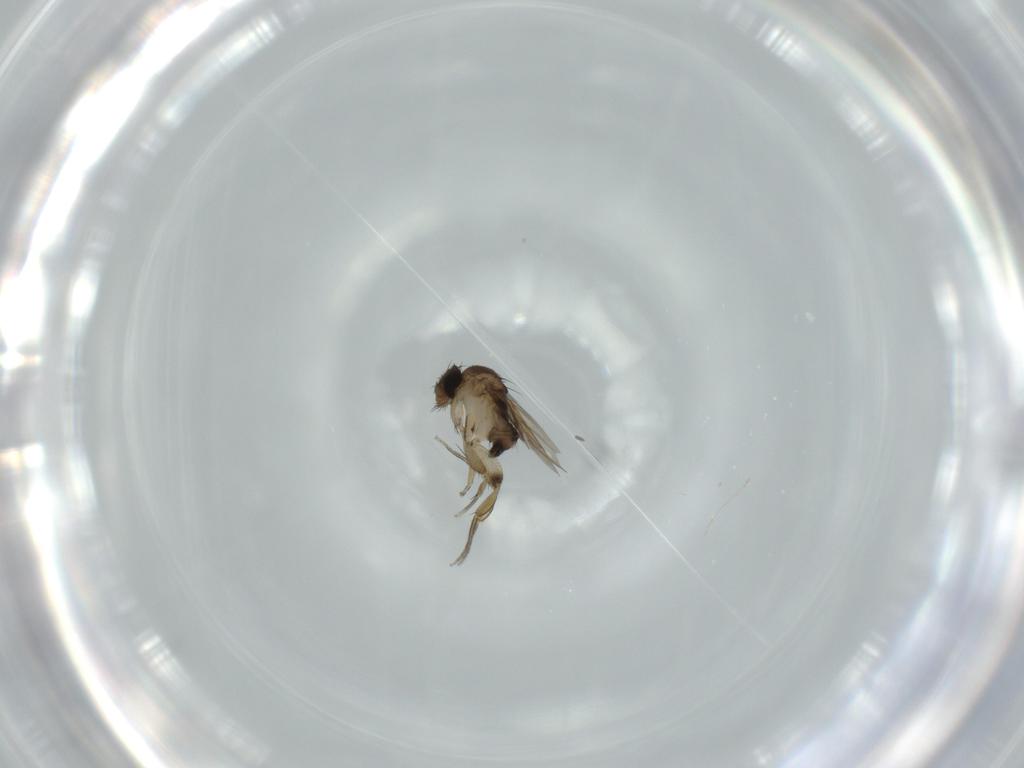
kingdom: Animalia
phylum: Arthropoda
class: Insecta
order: Diptera
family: Phoridae
